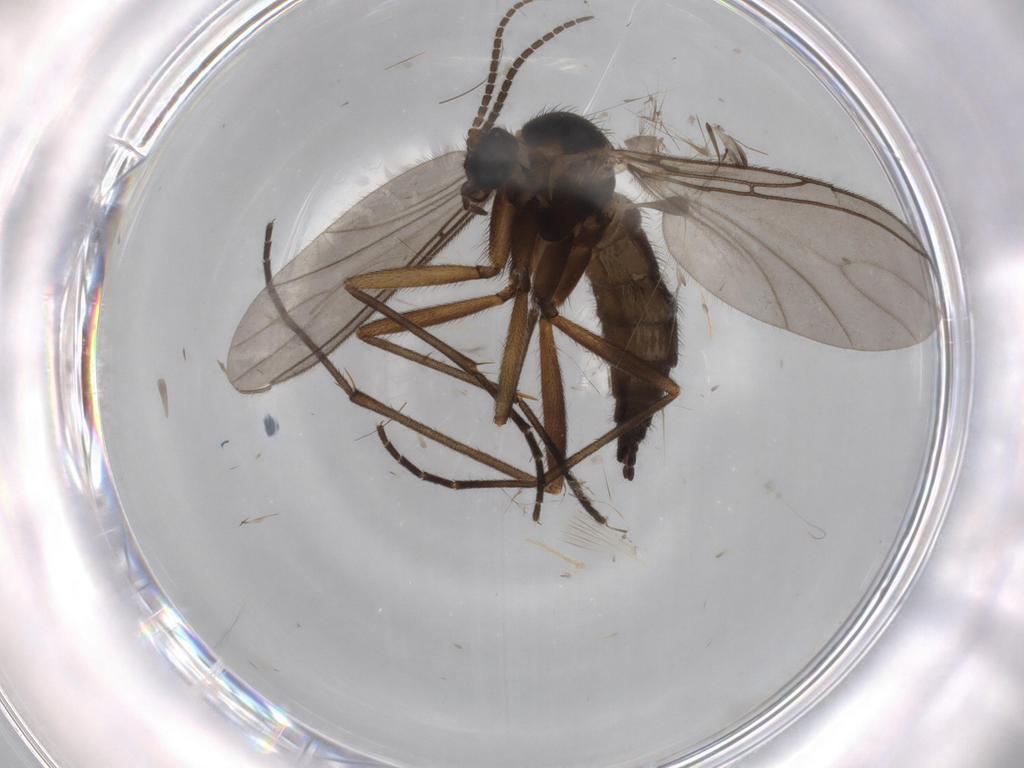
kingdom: Animalia
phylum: Arthropoda
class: Insecta
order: Diptera
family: Sciaridae
